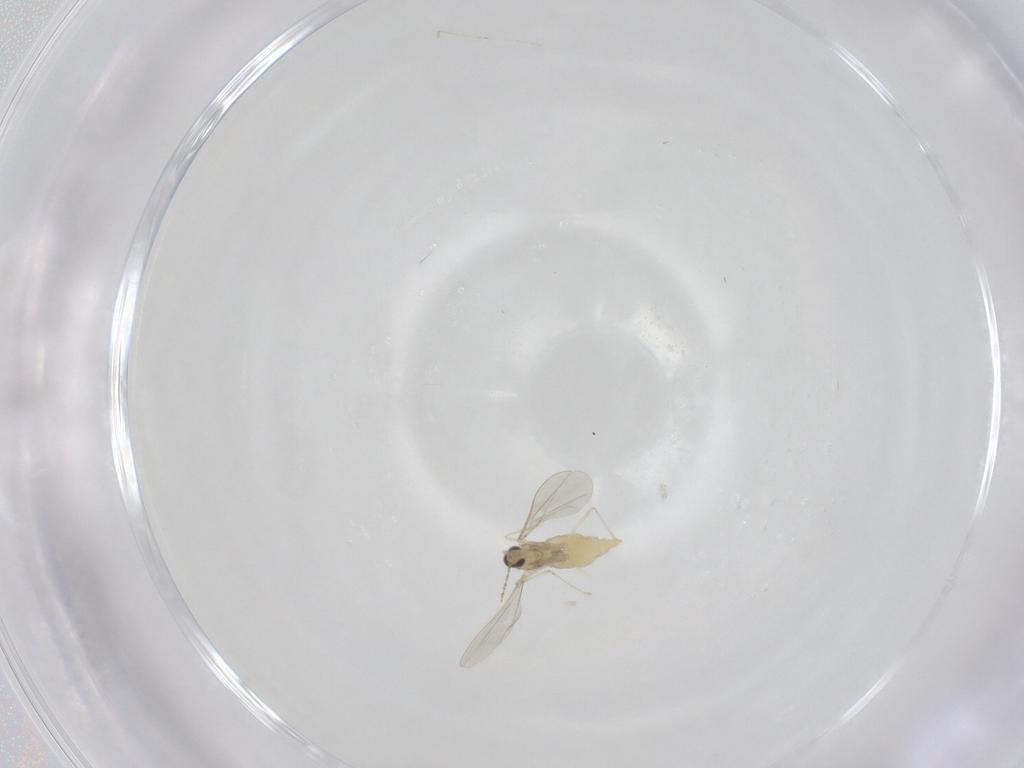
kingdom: Animalia
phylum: Arthropoda
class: Insecta
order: Diptera
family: Cecidomyiidae
